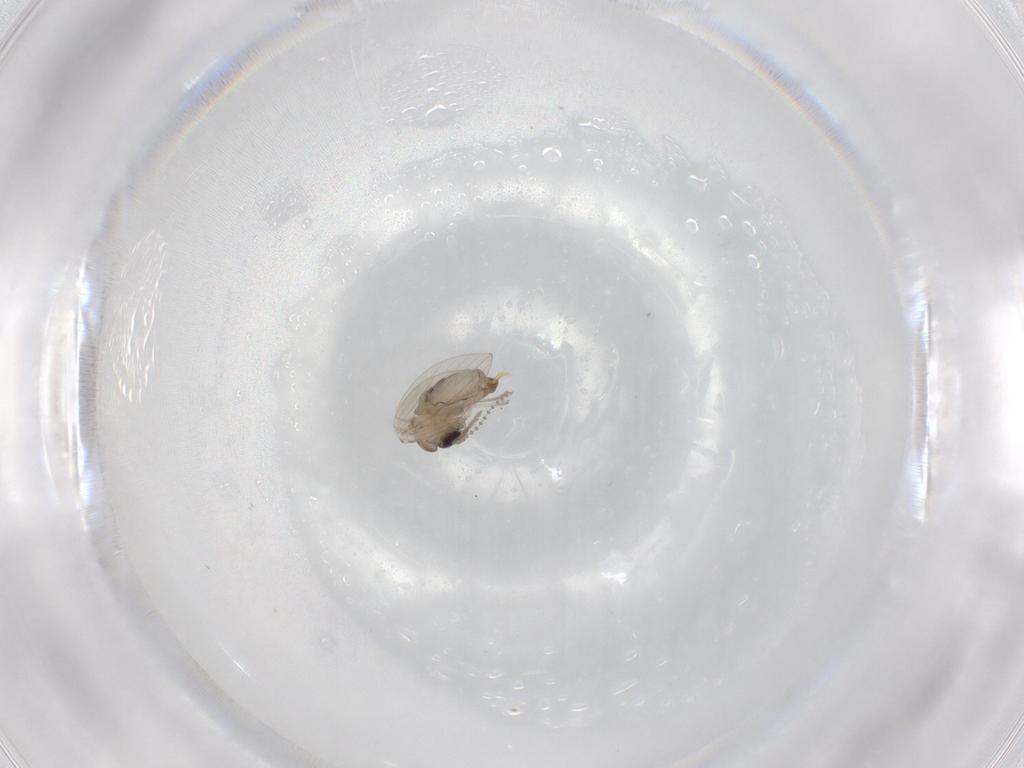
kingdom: Animalia
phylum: Arthropoda
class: Insecta
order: Diptera
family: Psychodidae
